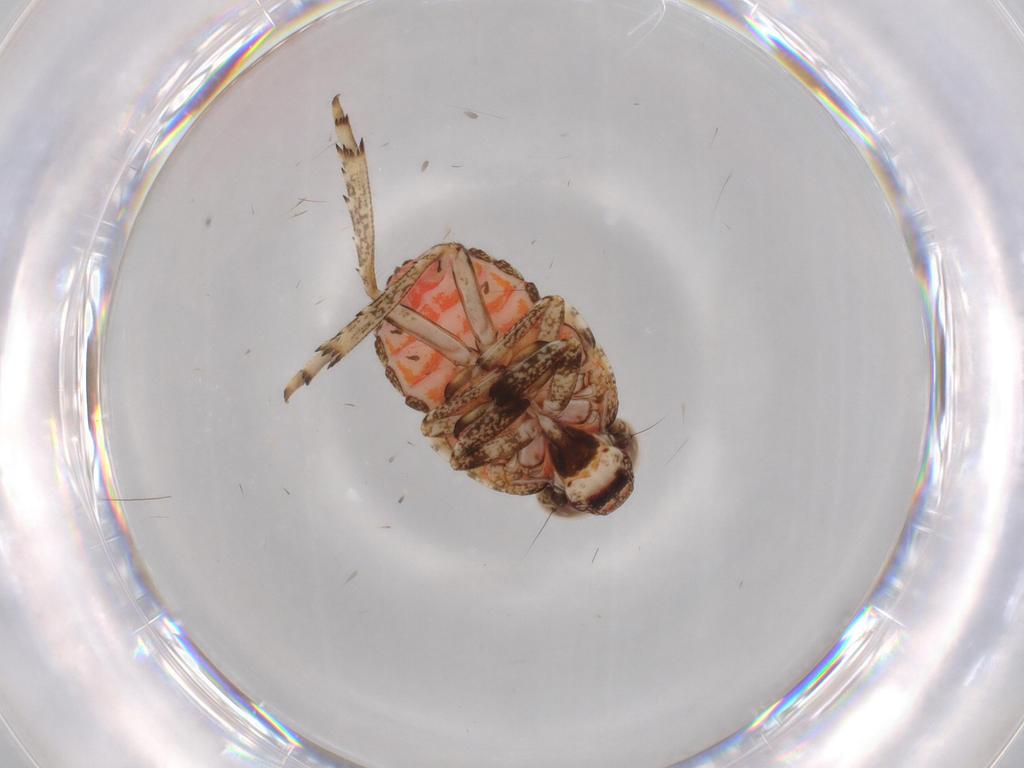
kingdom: Animalia
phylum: Arthropoda
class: Insecta
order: Hemiptera
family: Issidae
